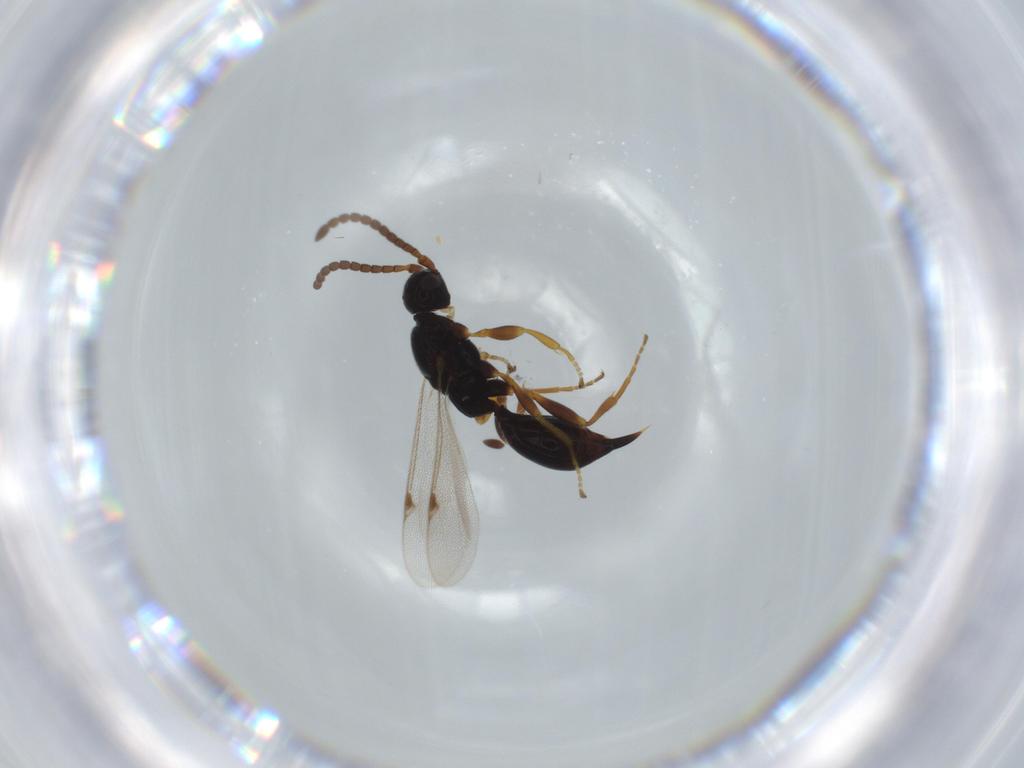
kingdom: Animalia
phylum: Arthropoda
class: Insecta
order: Hymenoptera
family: Proctotrupidae
